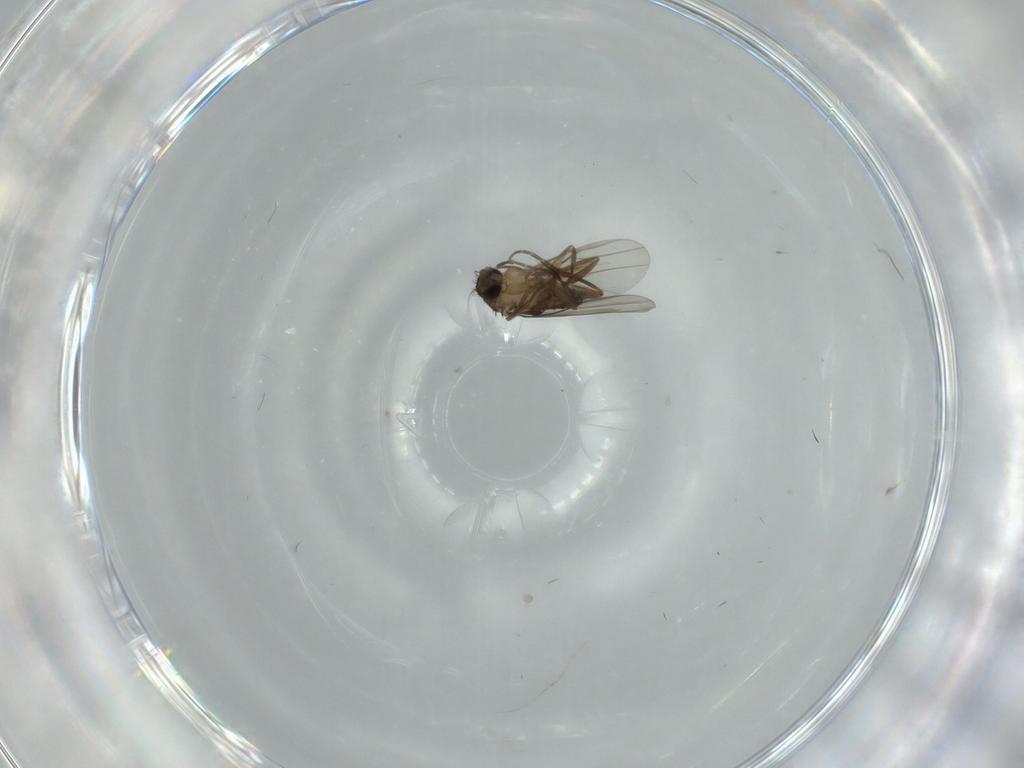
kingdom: Animalia
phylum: Arthropoda
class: Insecta
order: Diptera
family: Phoridae
